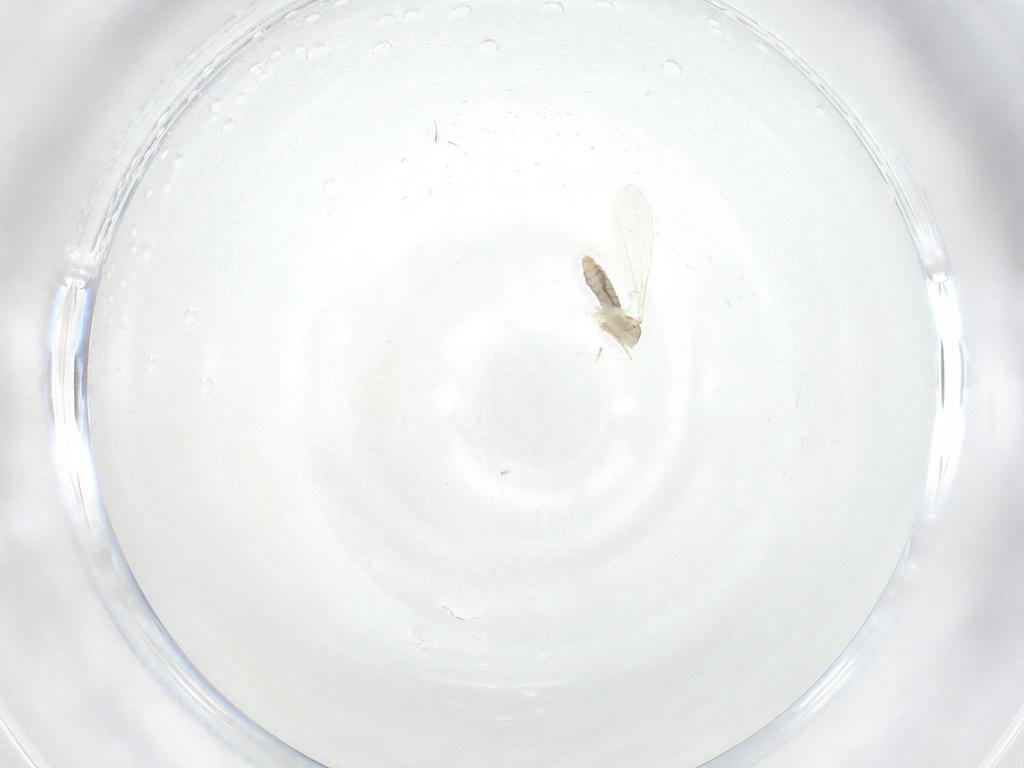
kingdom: Animalia
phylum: Arthropoda
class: Insecta
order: Diptera
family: Cecidomyiidae
